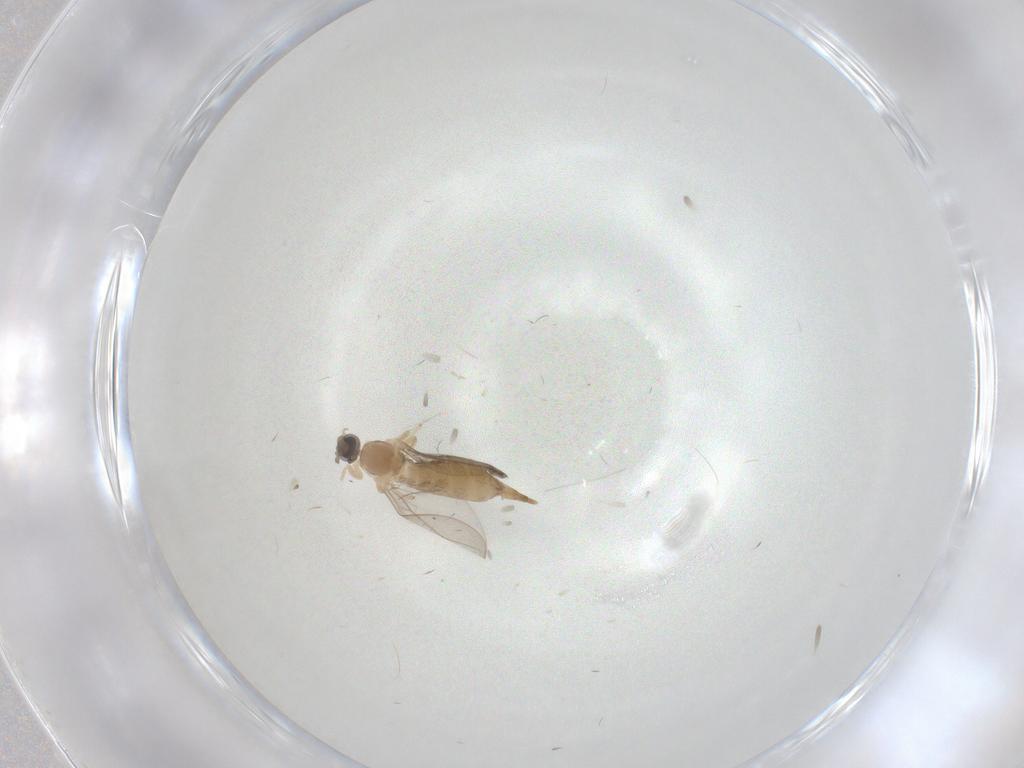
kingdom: Animalia
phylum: Arthropoda
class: Insecta
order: Diptera
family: Cecidomyiidae
